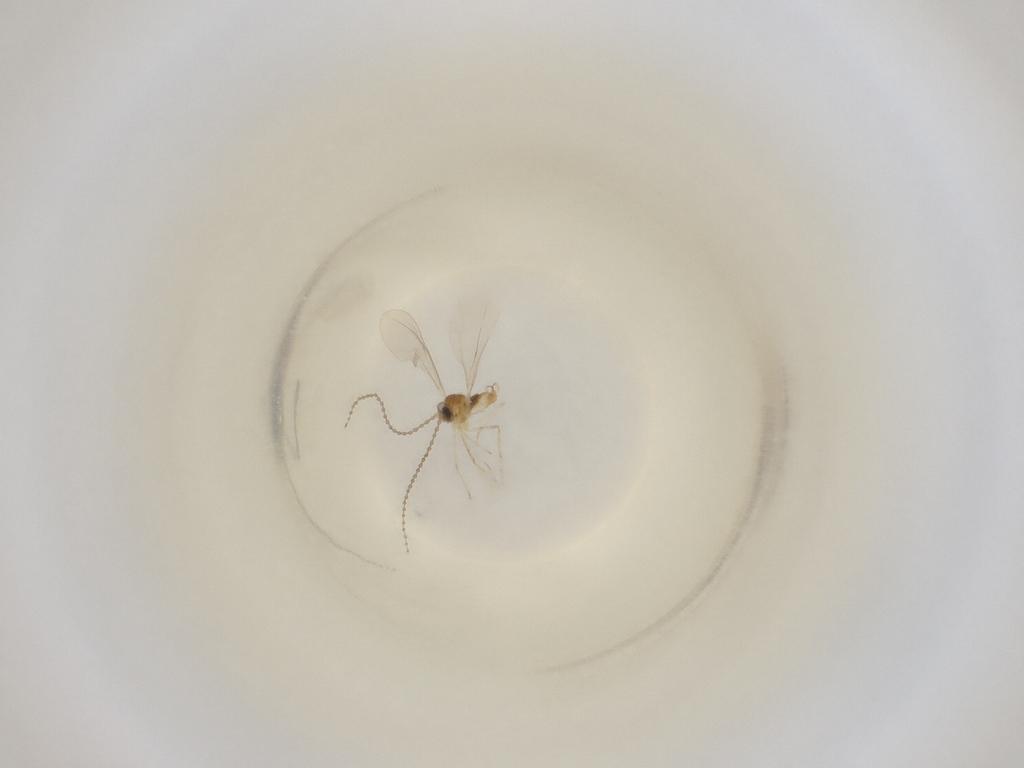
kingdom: Animalia
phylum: Arthropoda
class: Insecta
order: Diptera
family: Cecidomyiidae
